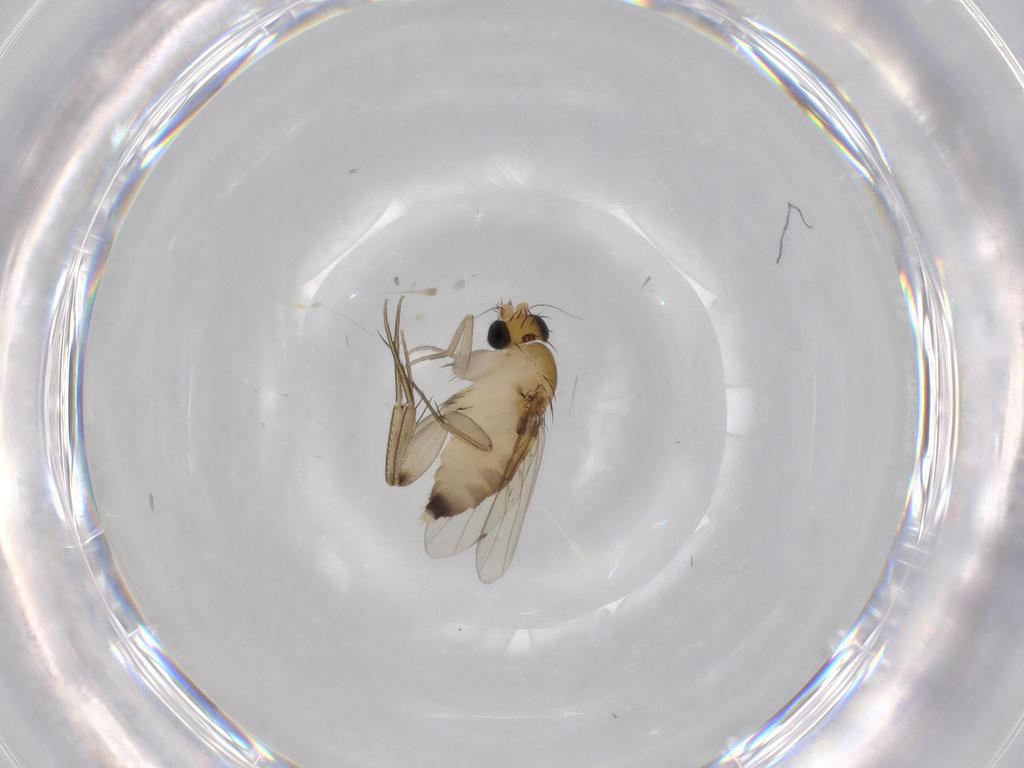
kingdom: Animalia
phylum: Arthropoda
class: Insecta
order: Diptera
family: Phoridae
